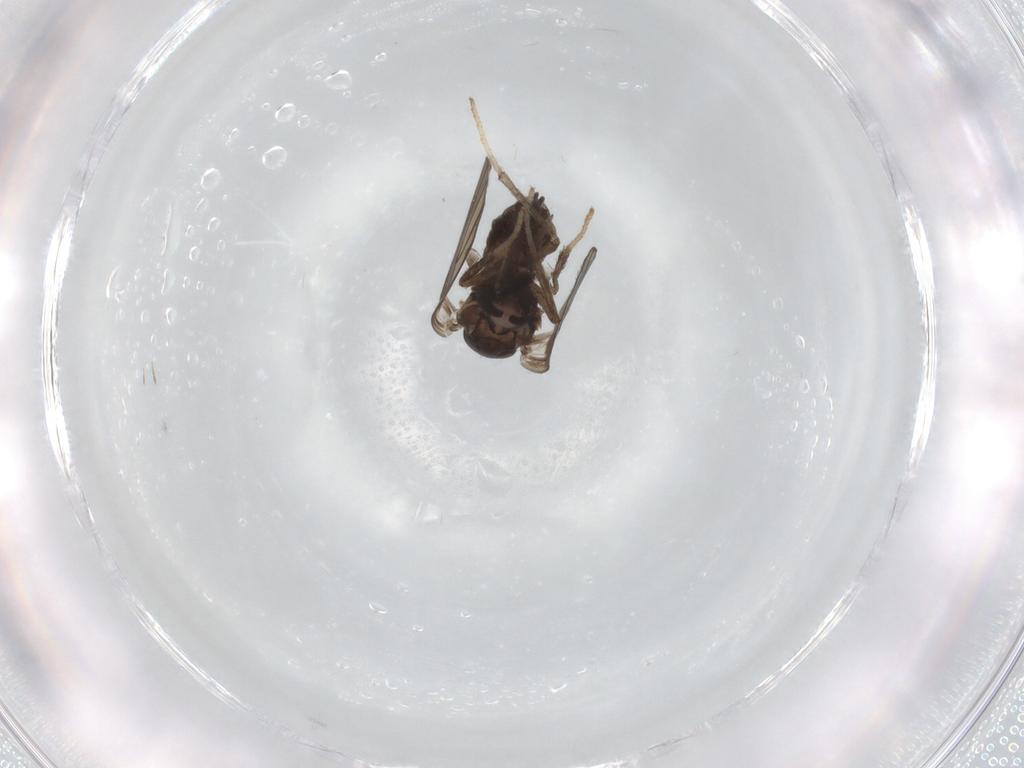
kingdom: Animalia
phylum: Arthropoda
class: Insecta
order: Diptera
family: Psychodidae
